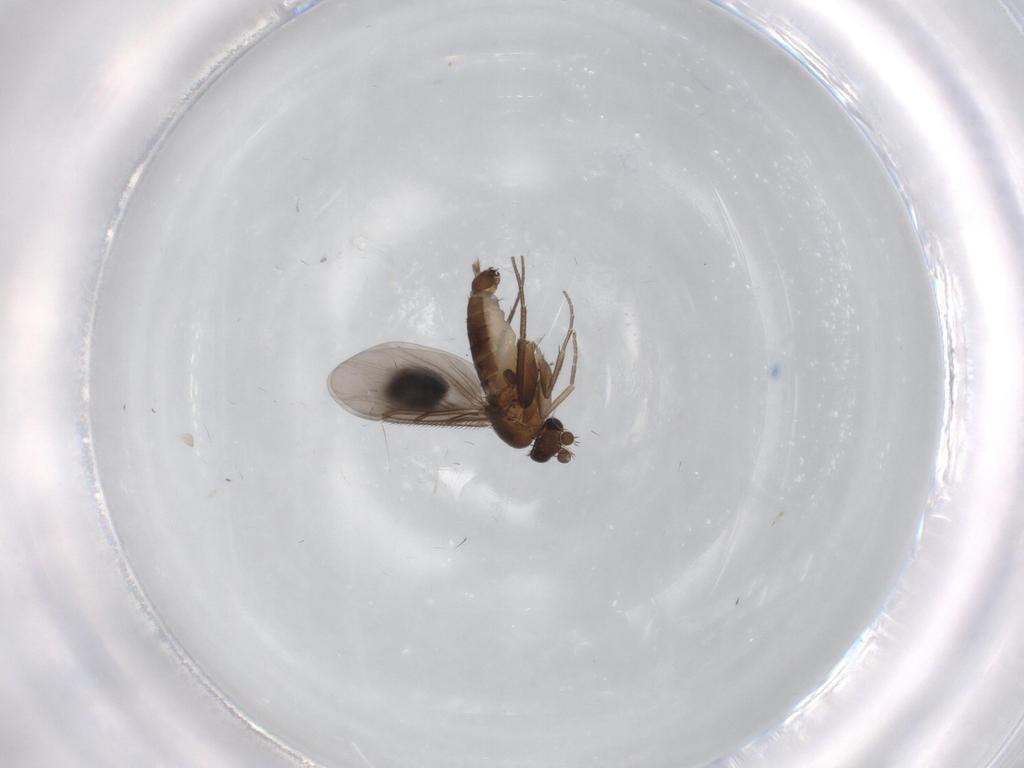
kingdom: Animalia
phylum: Arthropoda
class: Insecta
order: Diptera
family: Phoridae
